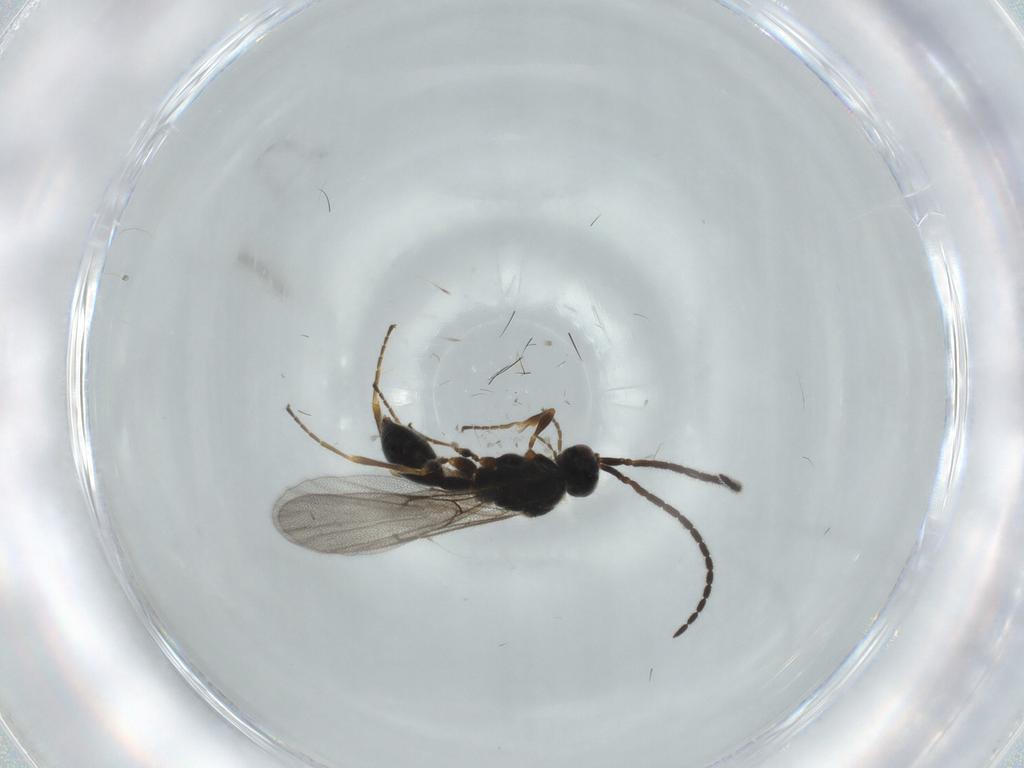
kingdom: Animalia
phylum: Arthropoda
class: Insecta
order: Hymenoptera
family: Diapriidae
